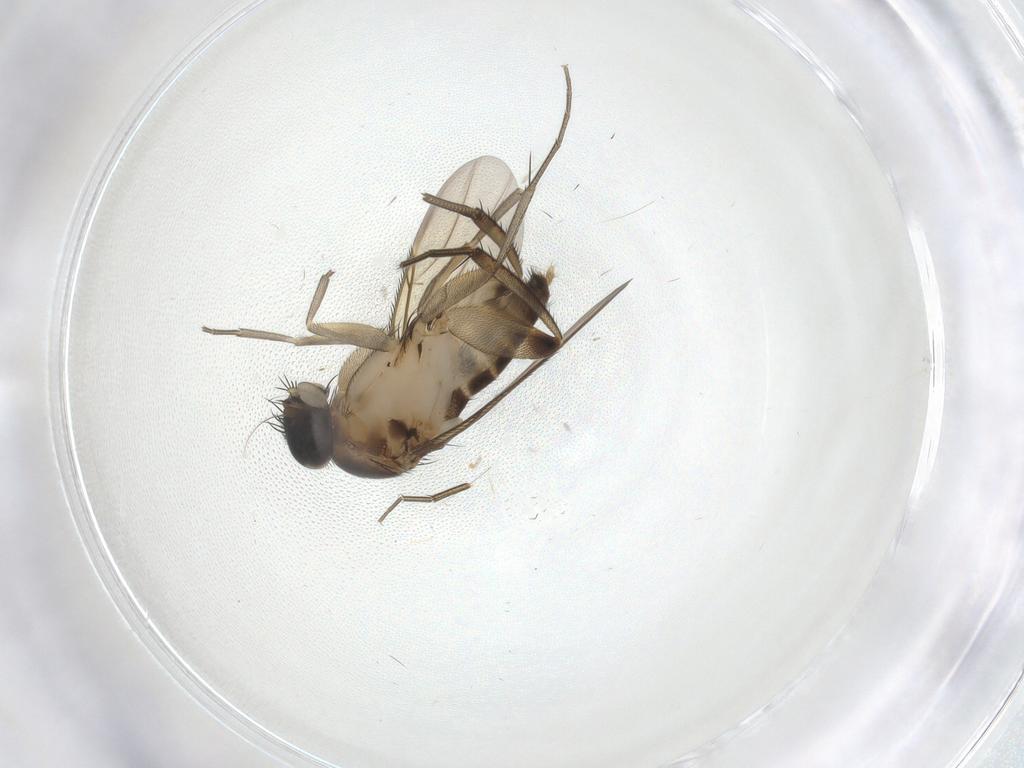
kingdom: Animalia
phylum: Arthropoda
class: Insecta
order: Diptera
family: Phoridae
